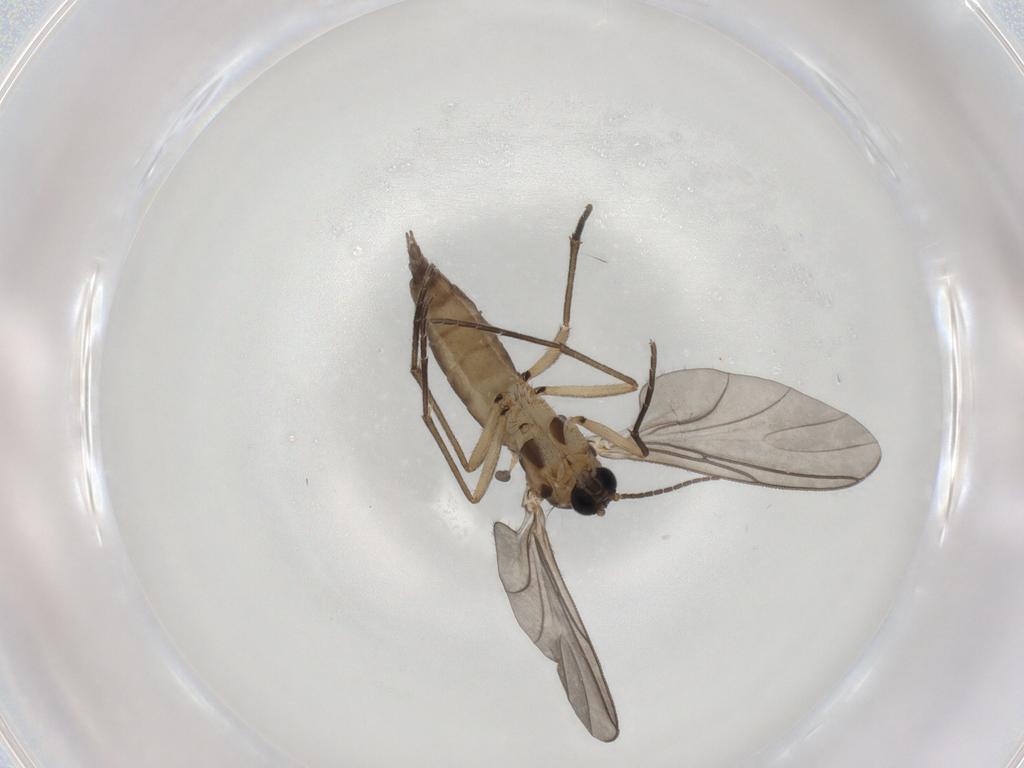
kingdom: Animalia
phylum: Arthropoda
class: Insecta
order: Diptera
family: Sciaridae
